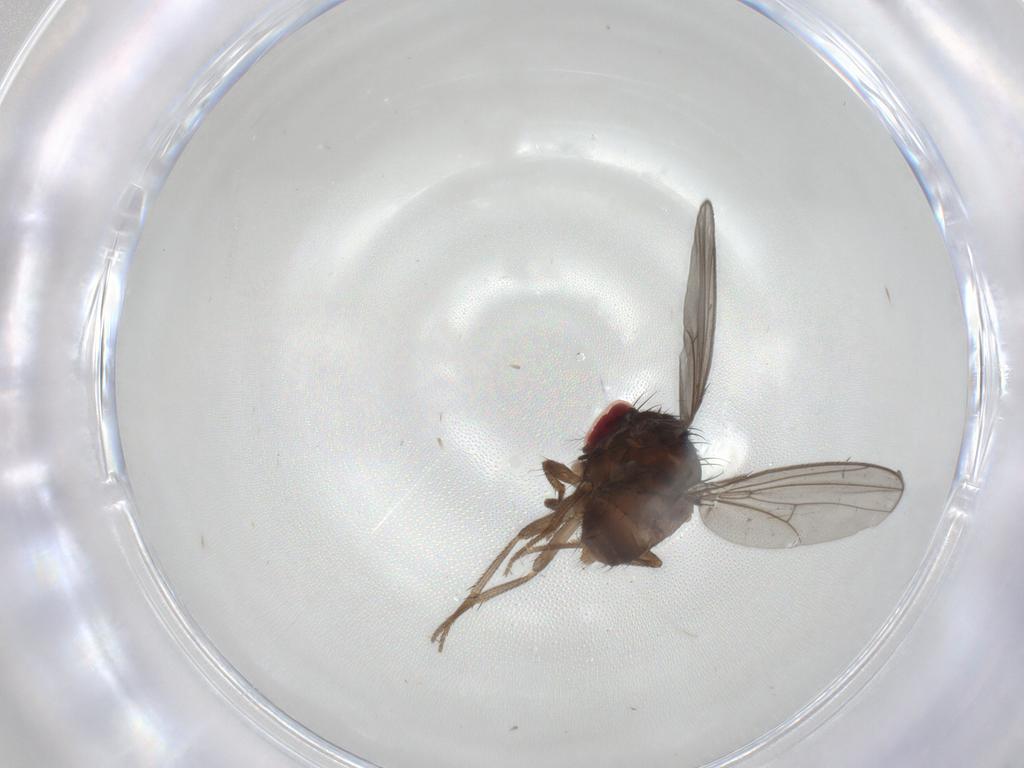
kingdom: Animalia
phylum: Arthropoda
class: Insecta
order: Diptera
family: Drosophilidae
